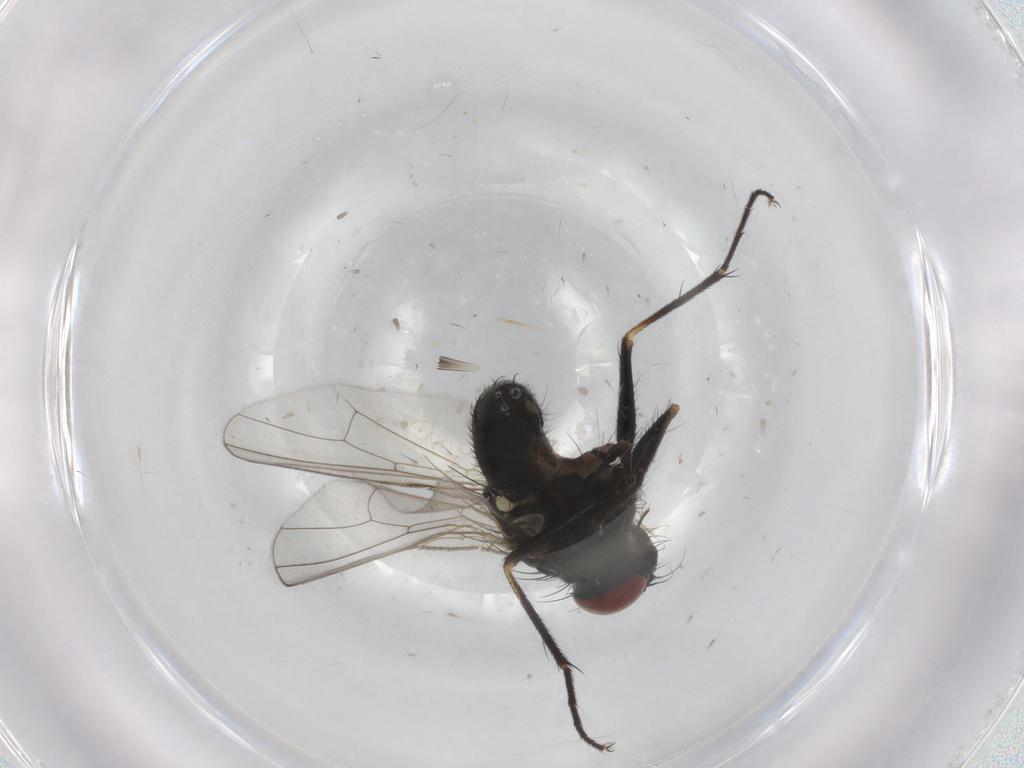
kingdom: Animalia
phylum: Arthropoda
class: Insecta
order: Diptera
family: Muscidae
